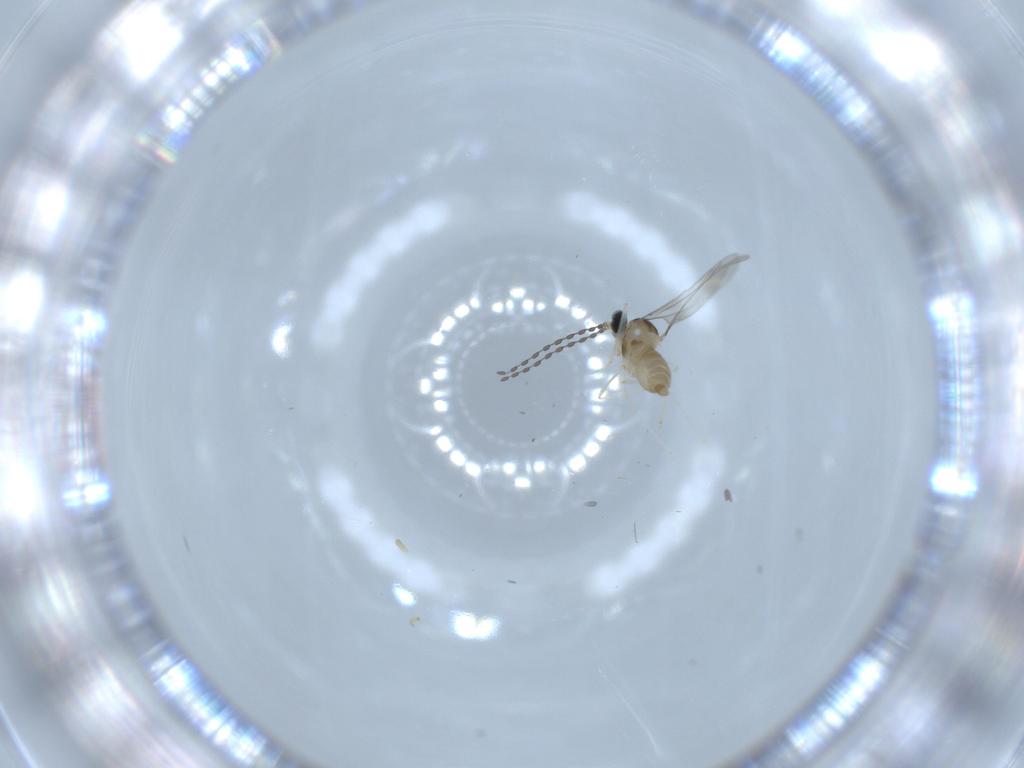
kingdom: Animalia
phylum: Arthropoda
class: Insecta
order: Diptera
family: Cecidomyiidae
